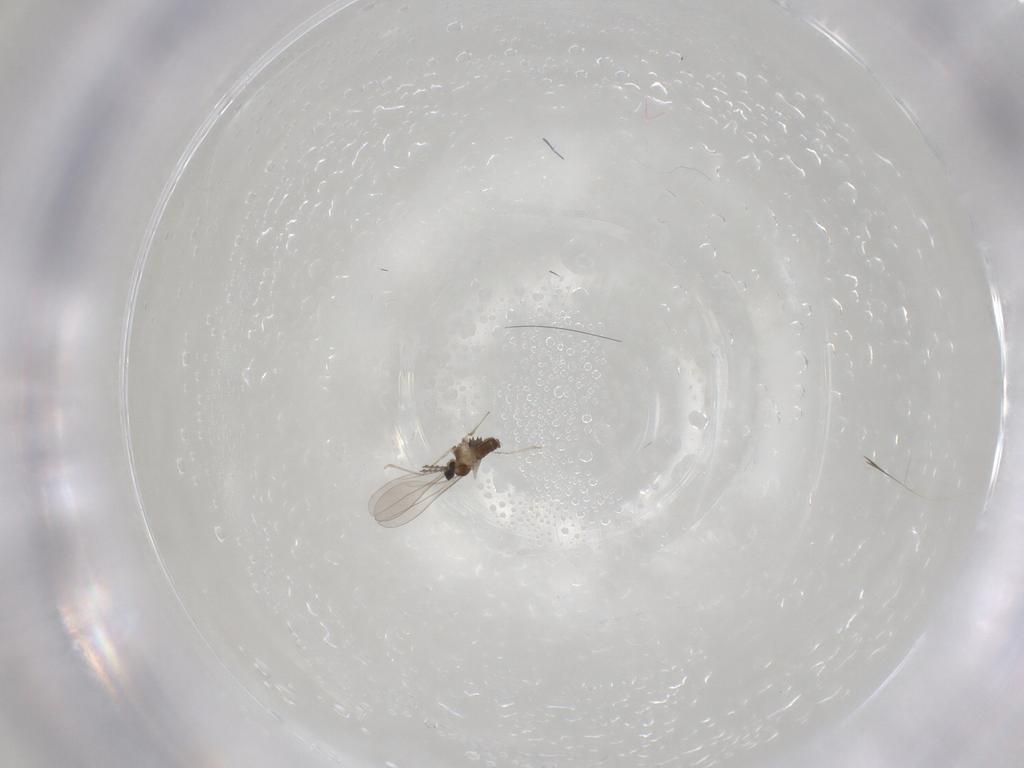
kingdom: Animalia
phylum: Arthropoda
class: Insecta
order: Diptera
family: Cecidomyiidae
